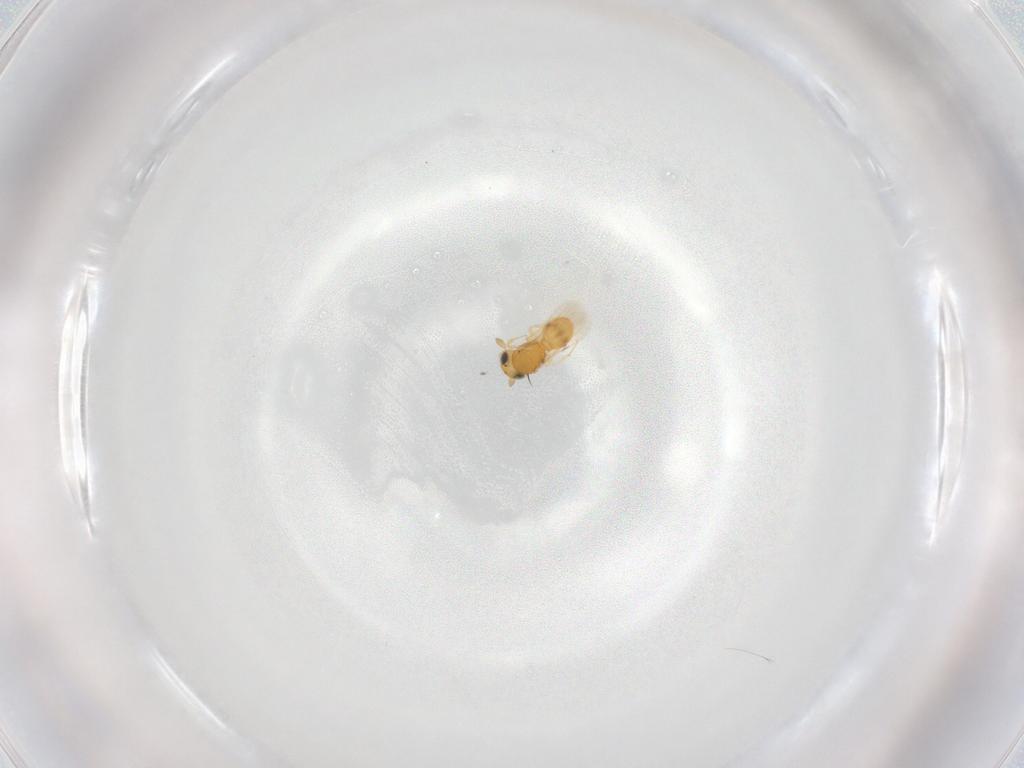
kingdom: Animalia
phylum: Arthropoda
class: Insecta
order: Hymenoptera
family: Scelionidae
